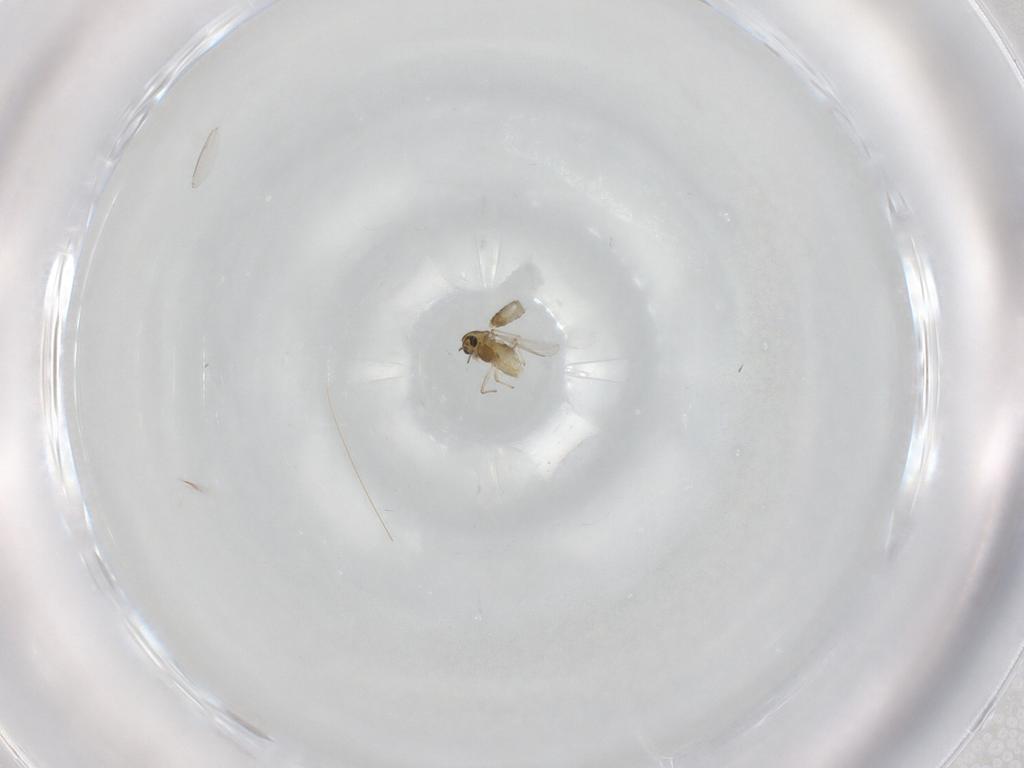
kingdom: Animalia
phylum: Arthropoda
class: Insecta
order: Diptera
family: Chironomidae
